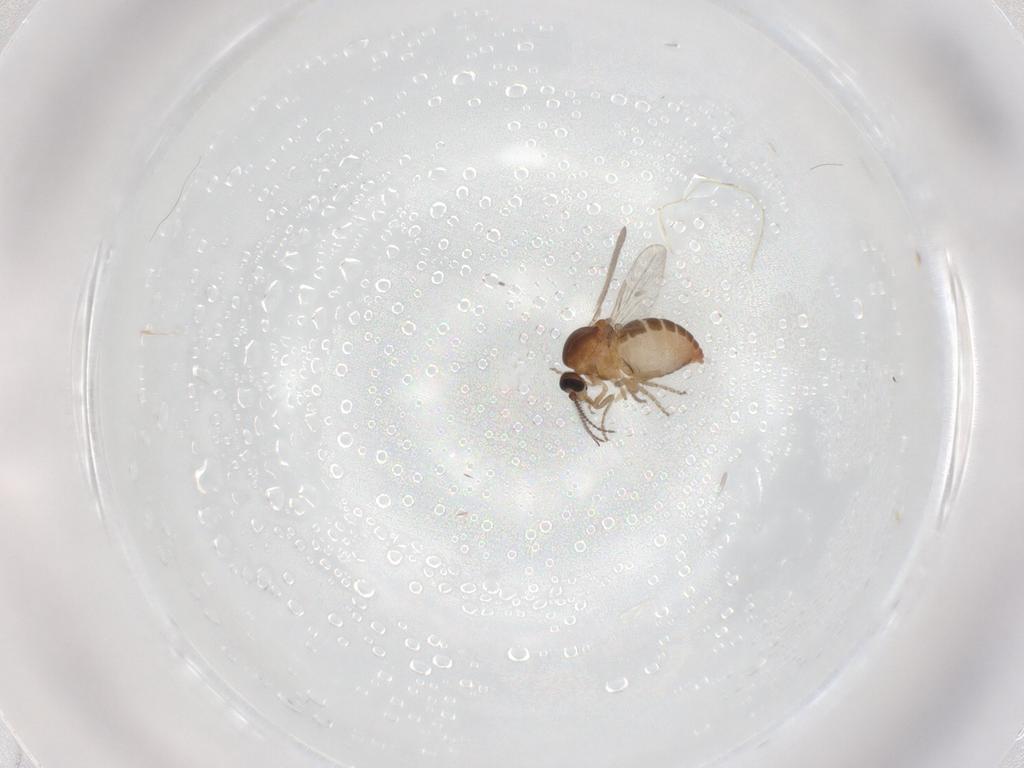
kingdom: Animalia
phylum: Arthropoda
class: Insecta
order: Diptera
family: Ceratopogonidae
